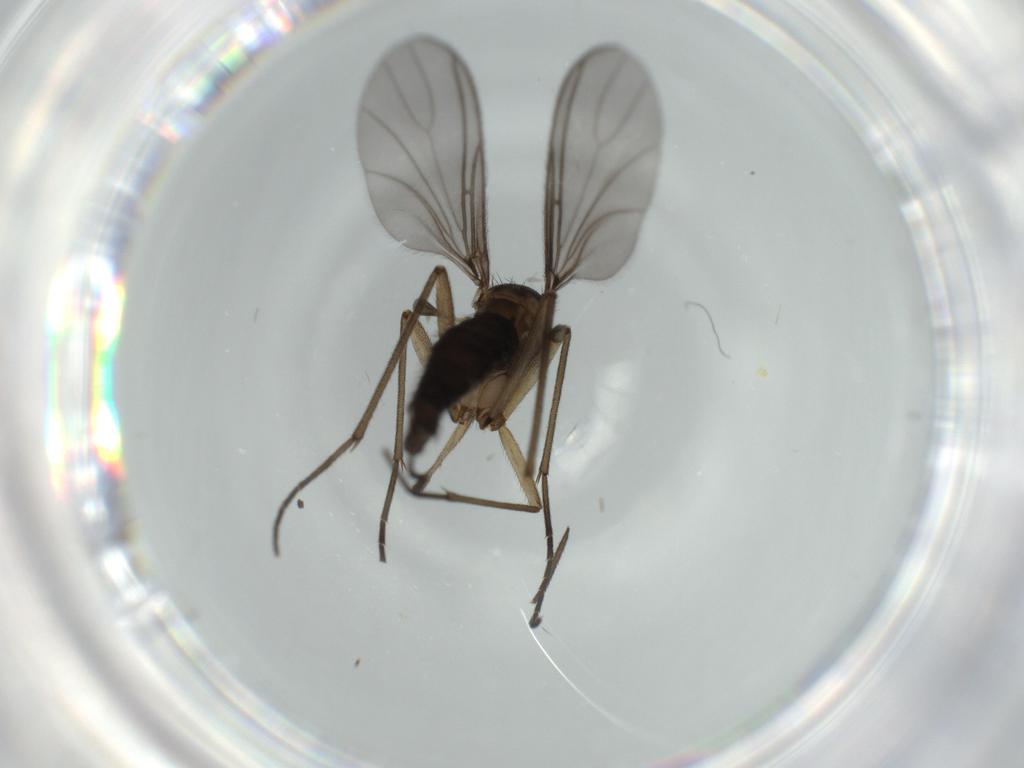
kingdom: Animalia
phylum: Arthropoda
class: Insecta
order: Diptera
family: Sciaridae
